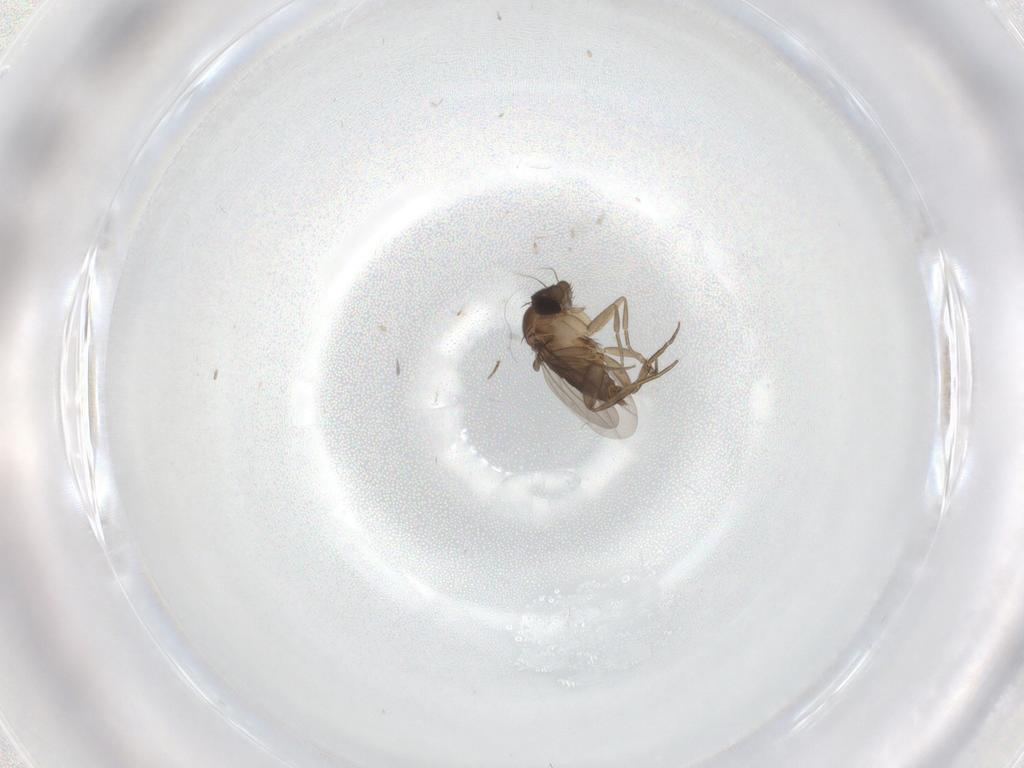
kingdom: Animalia
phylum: Arthropoda
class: Insecta
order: Diptera
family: Phoridae
